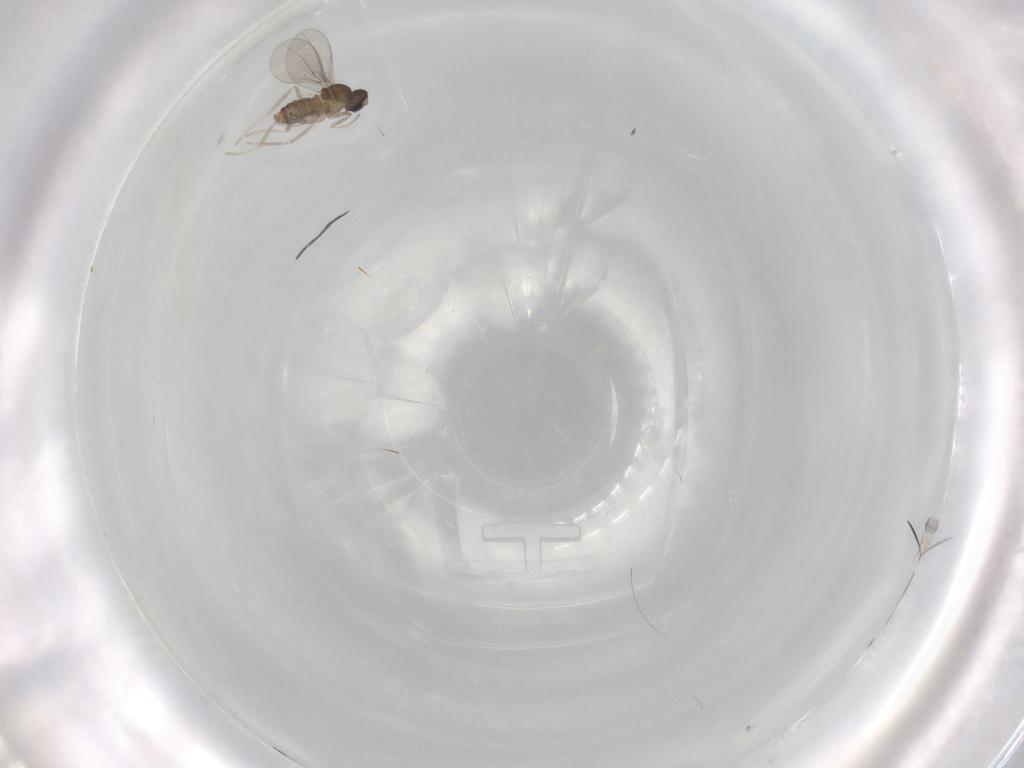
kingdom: Animalia
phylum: Arthropoda
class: Insecta
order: Diptera
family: Cecidomyiidae
